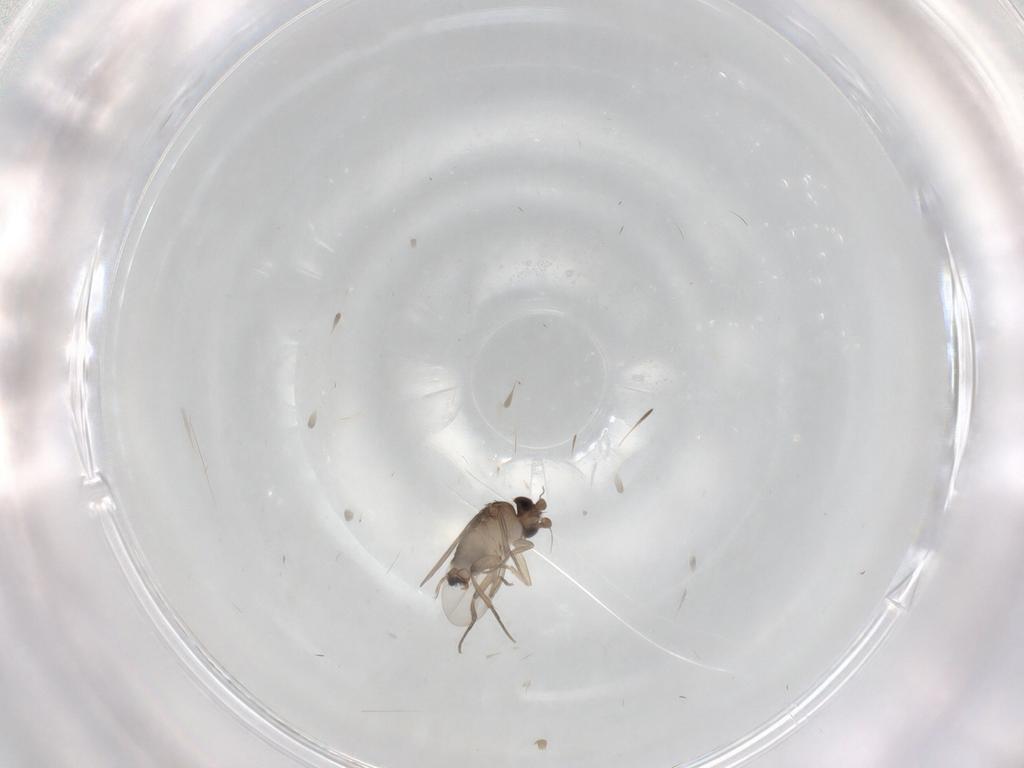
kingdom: Animalia
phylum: Arthropoda
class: Insecta
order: Diptera
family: Phoridae
